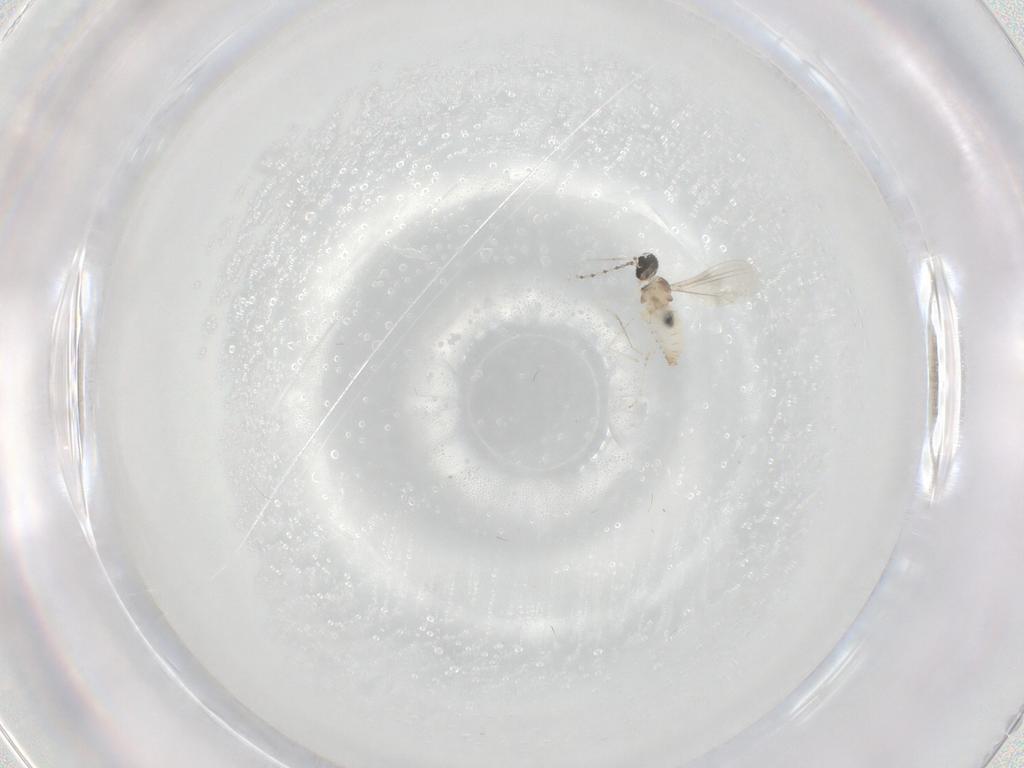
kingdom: Animalia
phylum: Arthropoda
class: Insecta
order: Diptera
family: Cecidomyiidae
